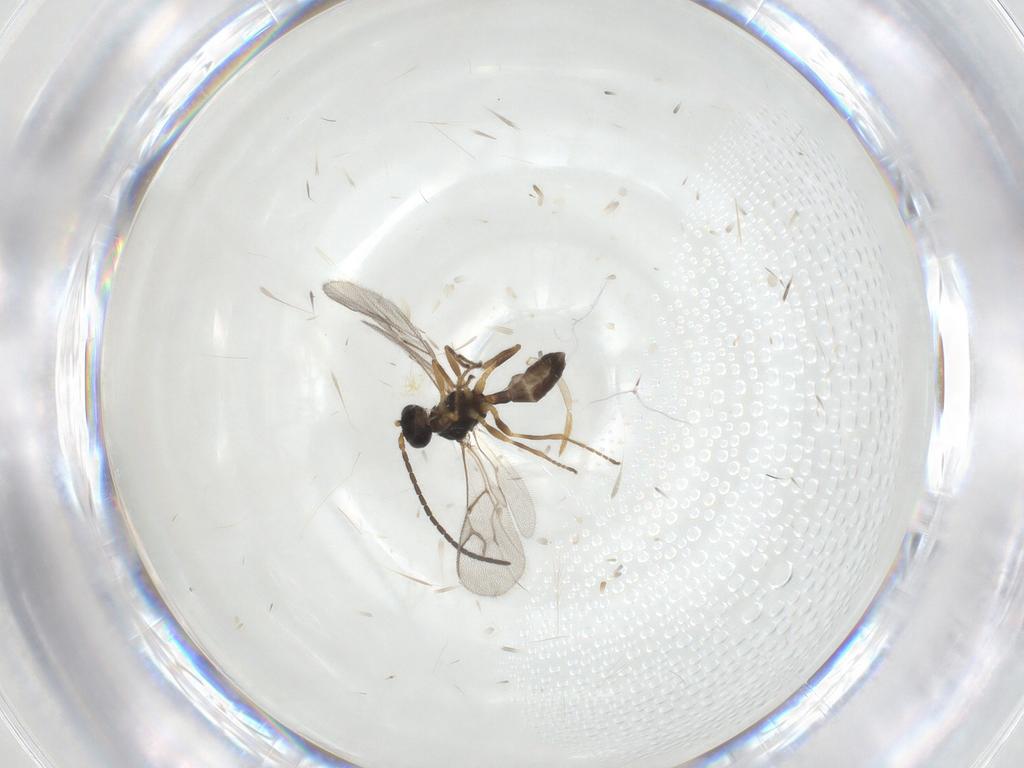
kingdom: Animalia
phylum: Arthropoda
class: Insecta
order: Hymenoptera
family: Braconidae
